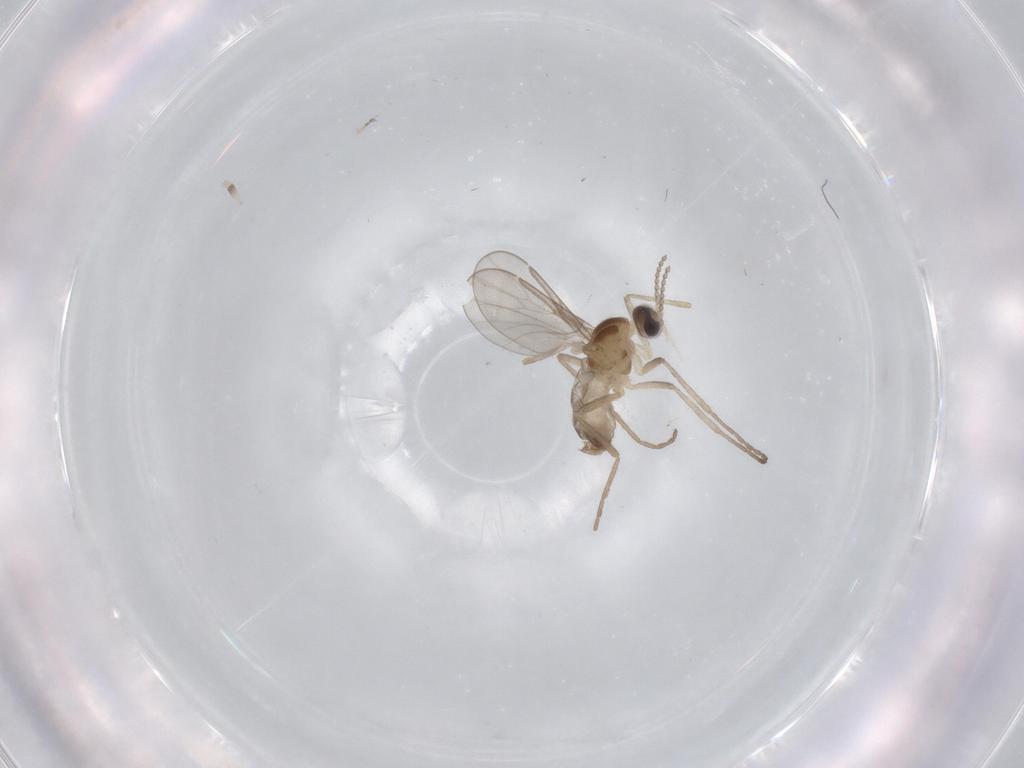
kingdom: Animalia
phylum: Arthropoda
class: Insecta
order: Diptera
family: Cecidomyiidae
